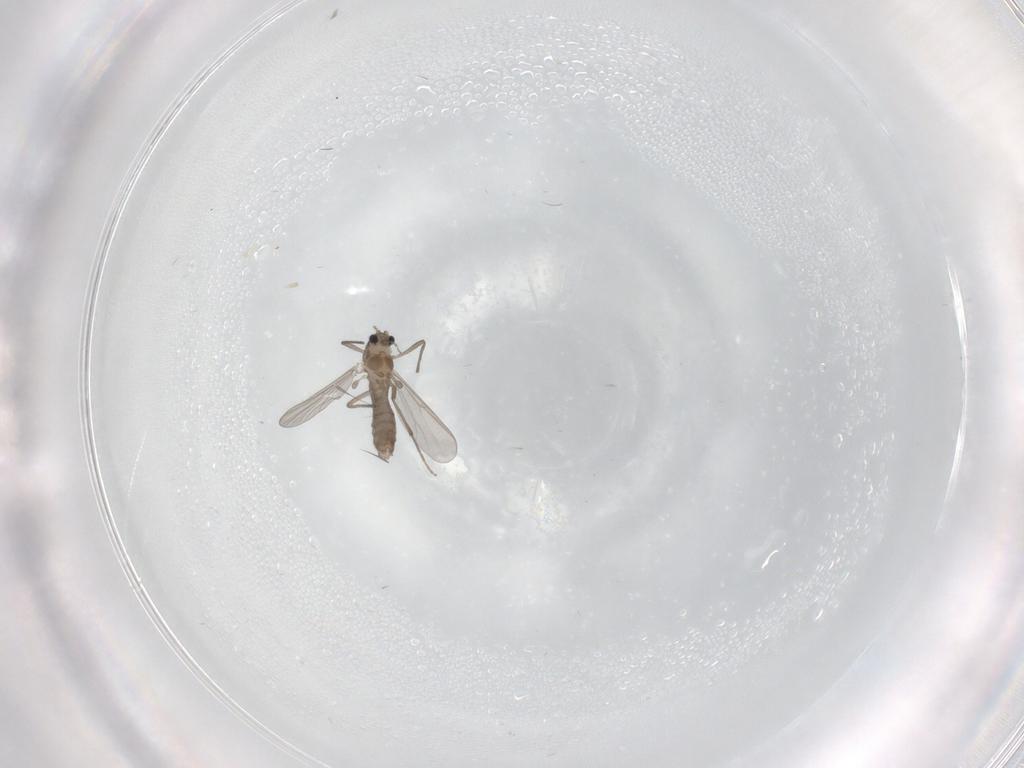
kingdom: Animalia
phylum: Arthropoda
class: Insecta
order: Diptera
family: Chironomidae
